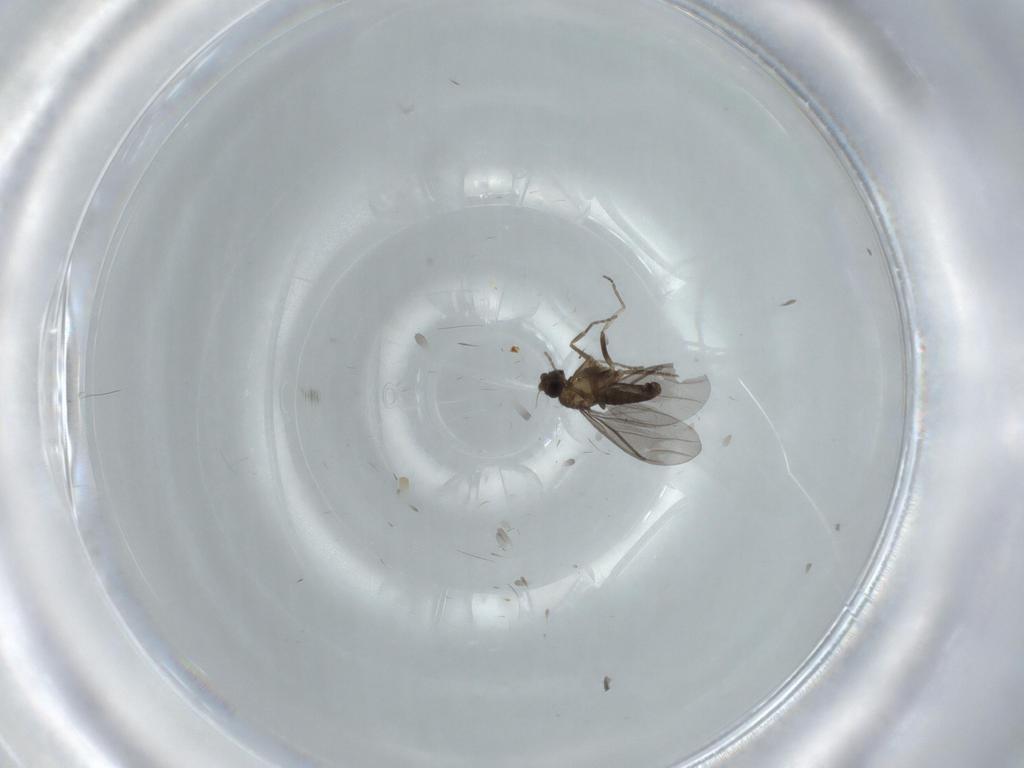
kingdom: Animalia
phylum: Arthropoda
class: Insecta
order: Diptera
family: Phoridae
